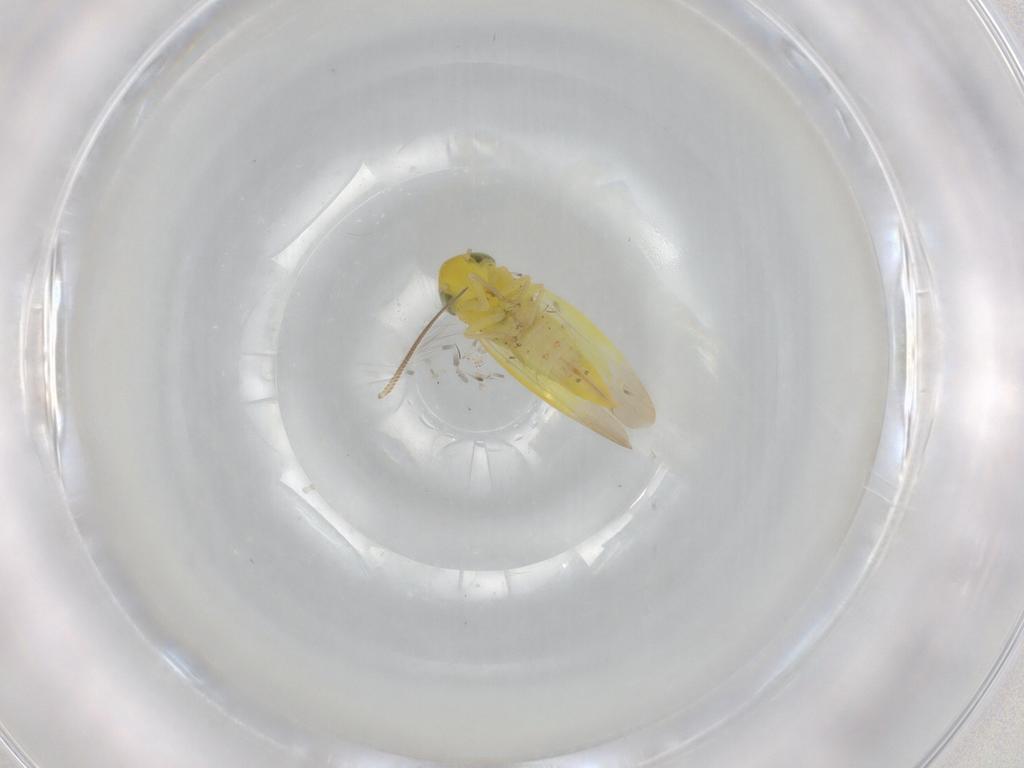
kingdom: Animalia
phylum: Arthropoda
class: Insecta
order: Hemiptera
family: Cicadellidae
